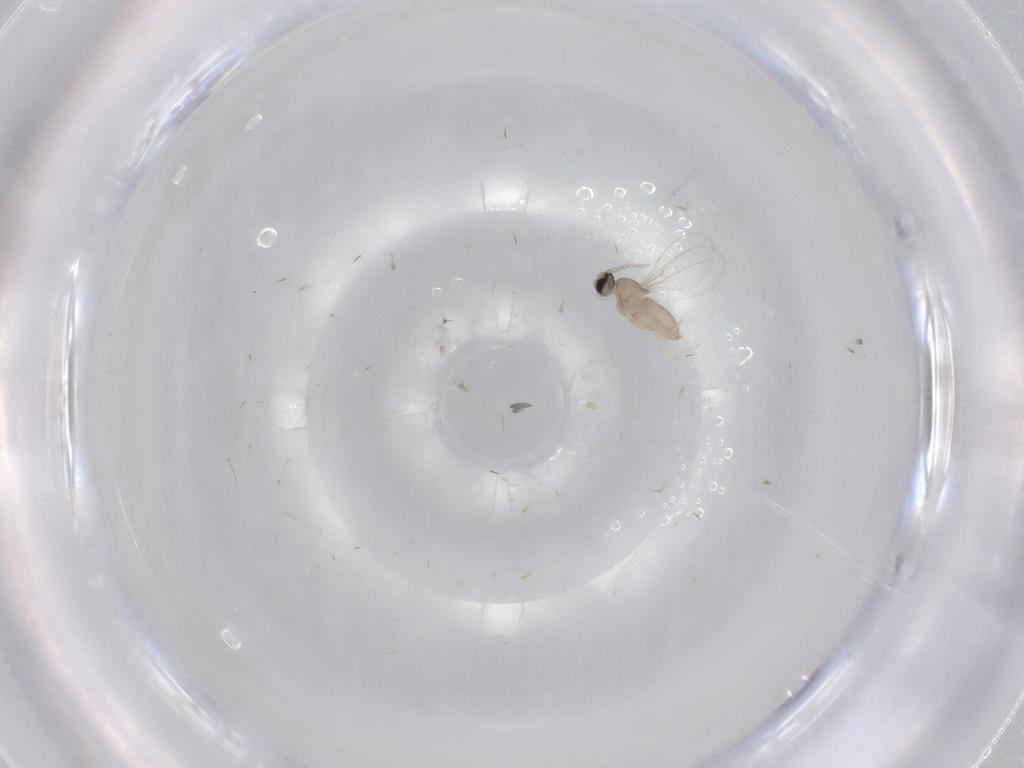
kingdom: Animalia
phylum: Arthropoda
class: Insecta
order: Diptera
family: Cecidomyiidae
